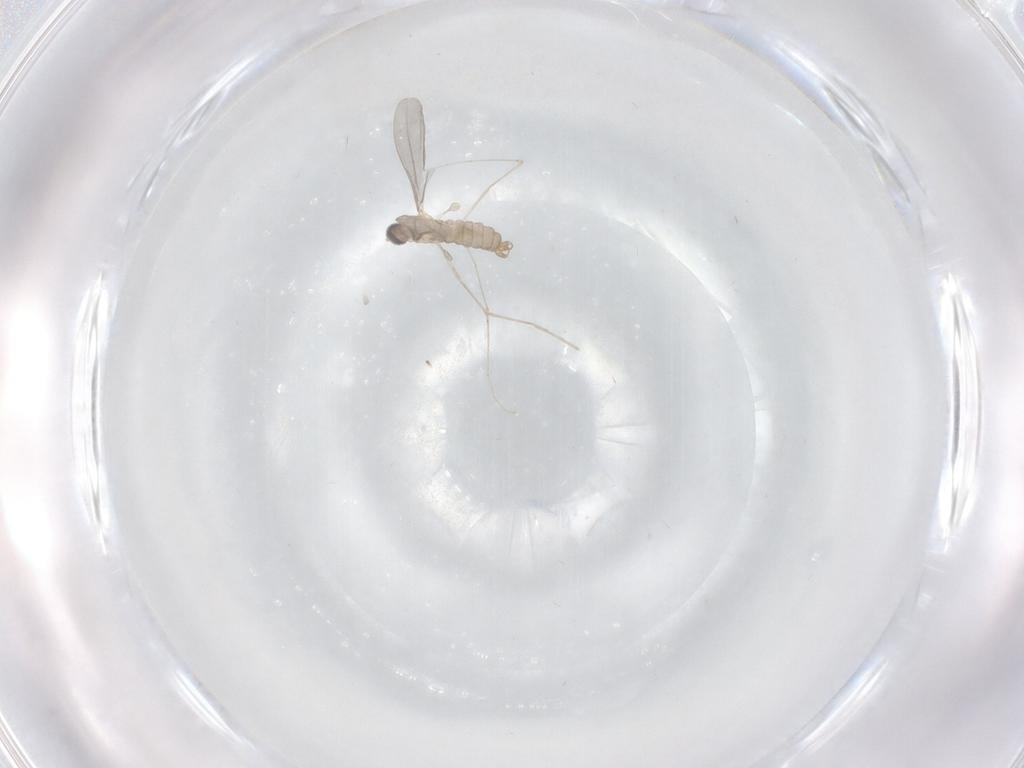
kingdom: Animalia
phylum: Arthropoda
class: Insecta
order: Diptera
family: Cecidomyiidae
